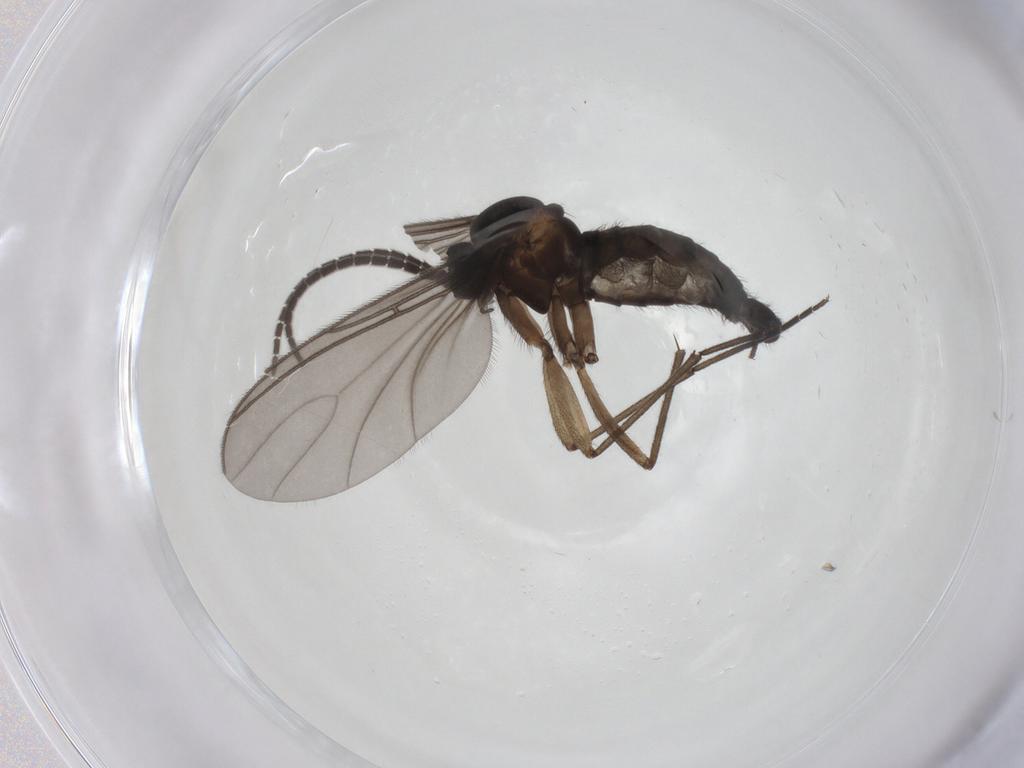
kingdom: Animalia
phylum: Arthropoda
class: Insecta
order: Diptera
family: Sciaridae
